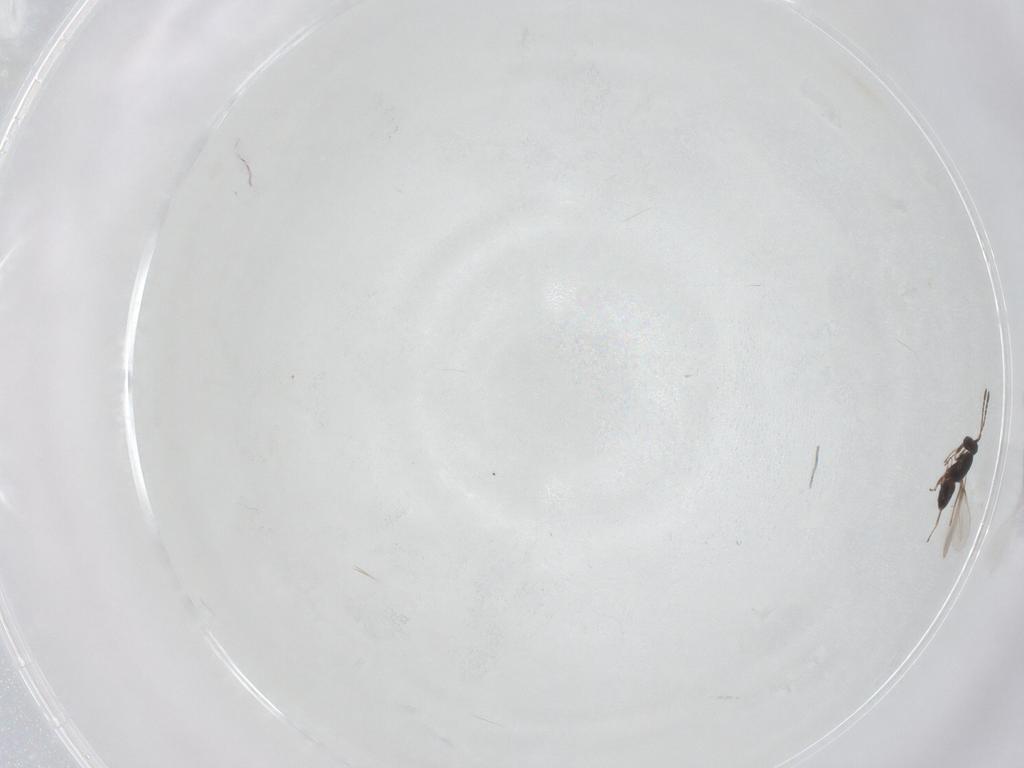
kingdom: Animalia
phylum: Arthropoda
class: Insecta
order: Hymenoptera
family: Mymaridae
